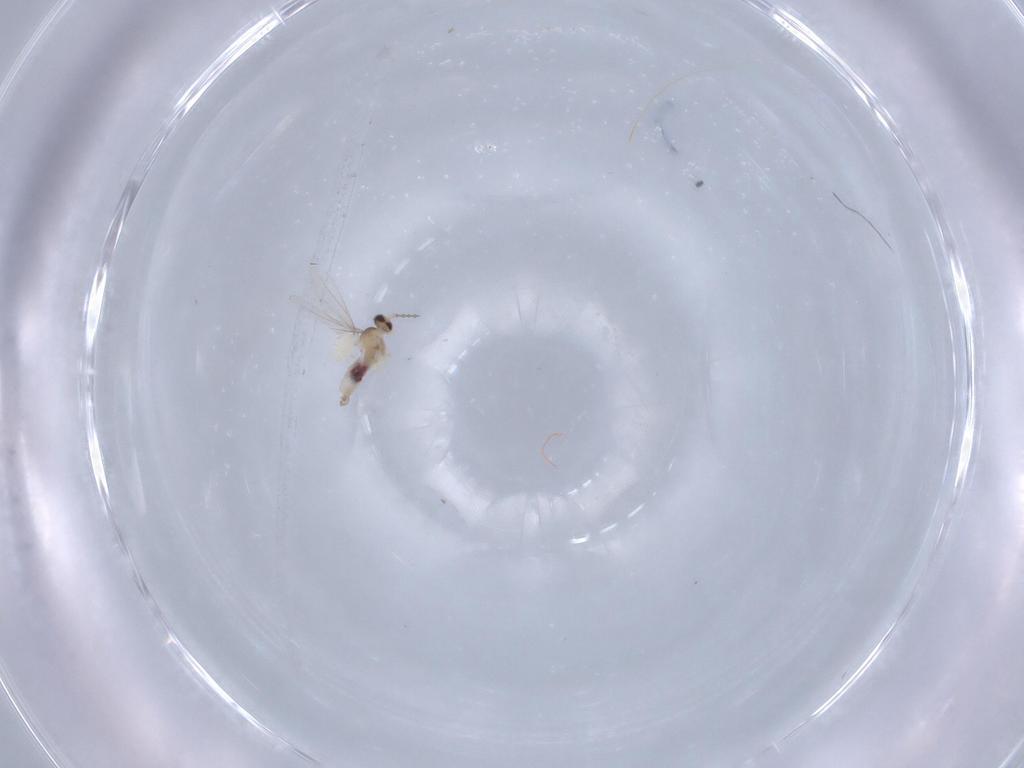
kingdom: Animalia
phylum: Arthropoda
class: Insecta
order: Diptera
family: Cecidomyiidae
